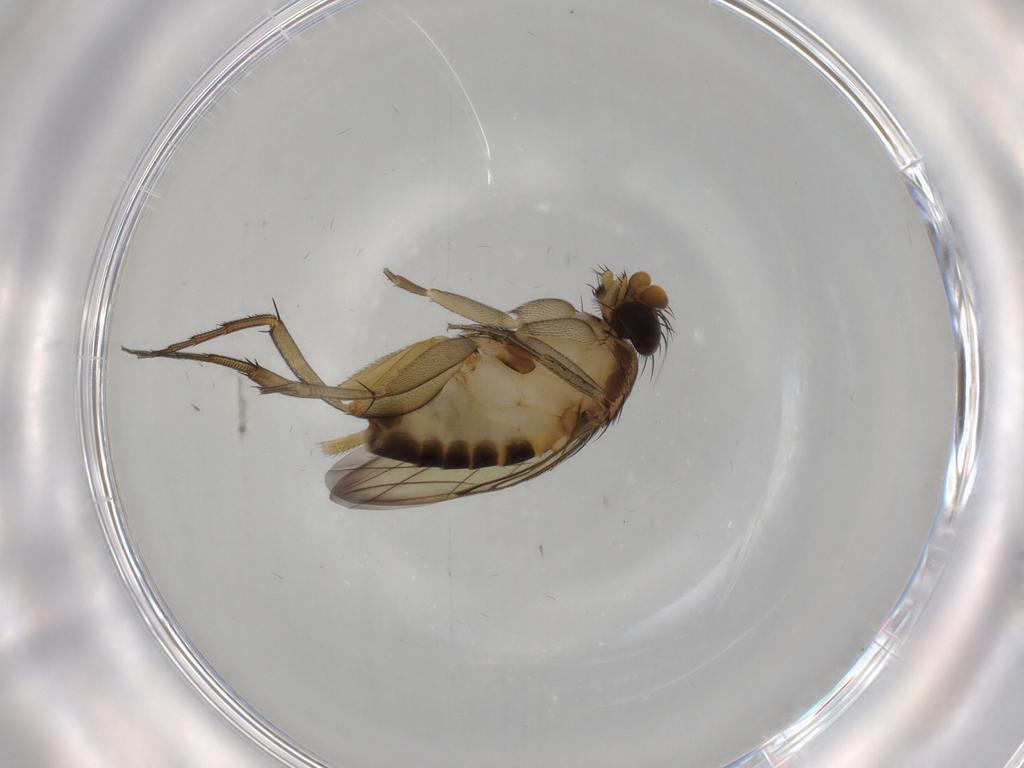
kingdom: Animalia
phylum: Arthropoda
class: Insecta
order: Diptera
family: Phoridae
